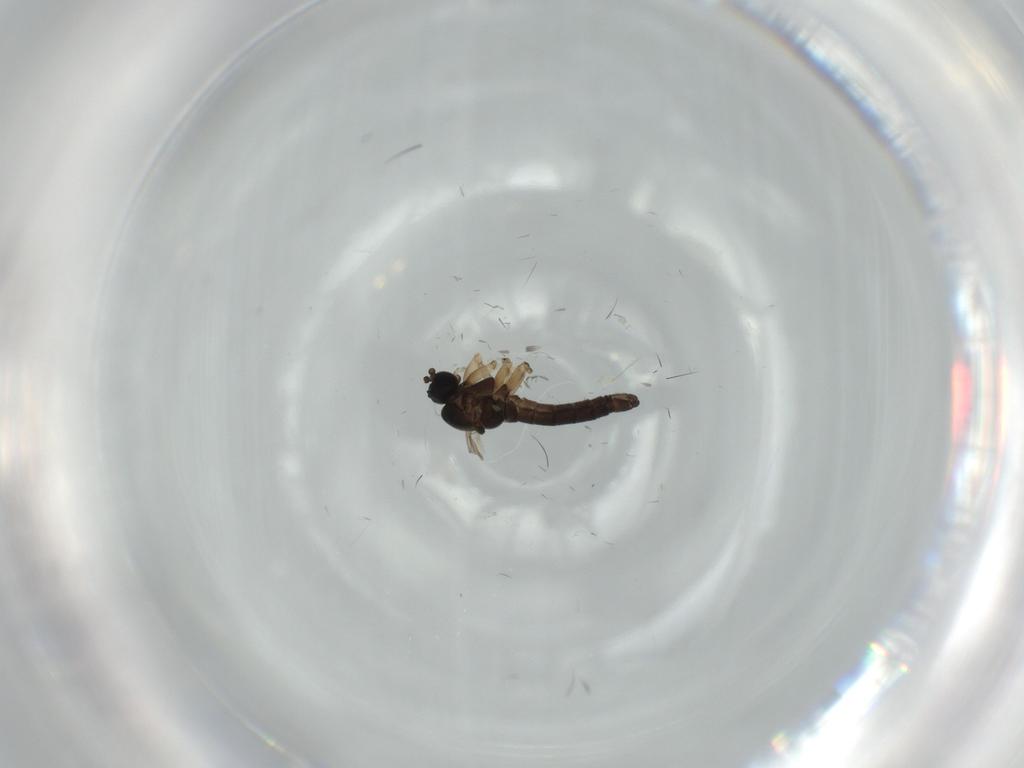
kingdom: Animalia
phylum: Arthropoda
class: Insecta
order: Diptera
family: Sciaridae
